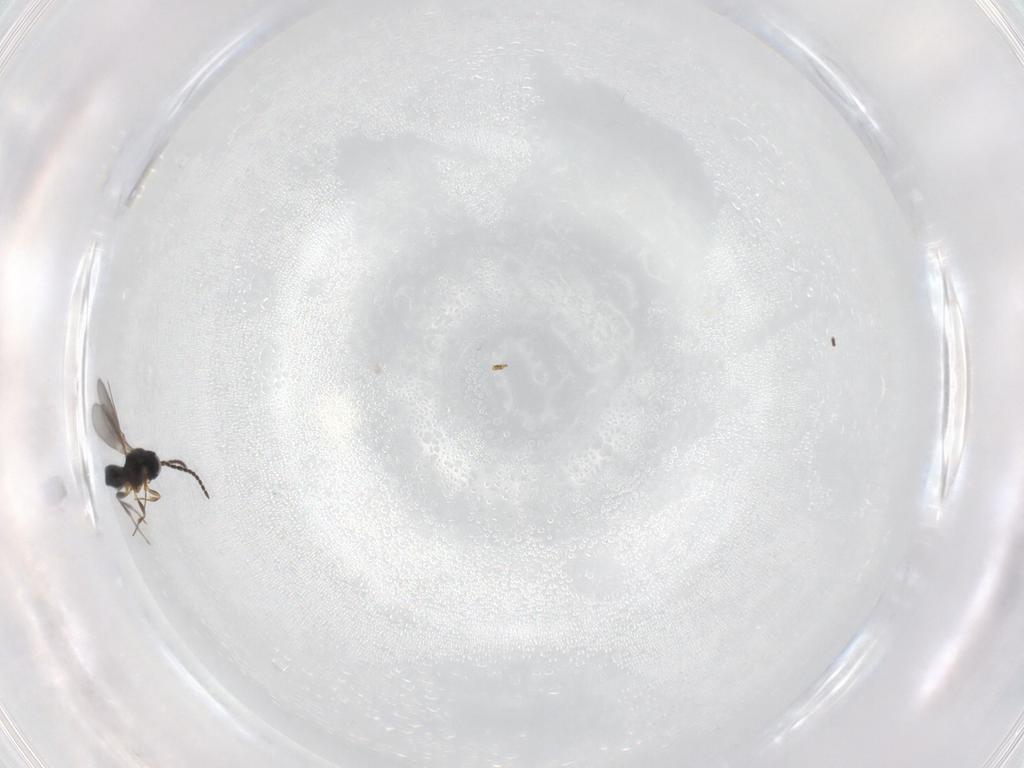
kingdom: Animalia
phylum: Arthropoda
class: Insecta
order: Hymenoptera
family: Scelionidae
